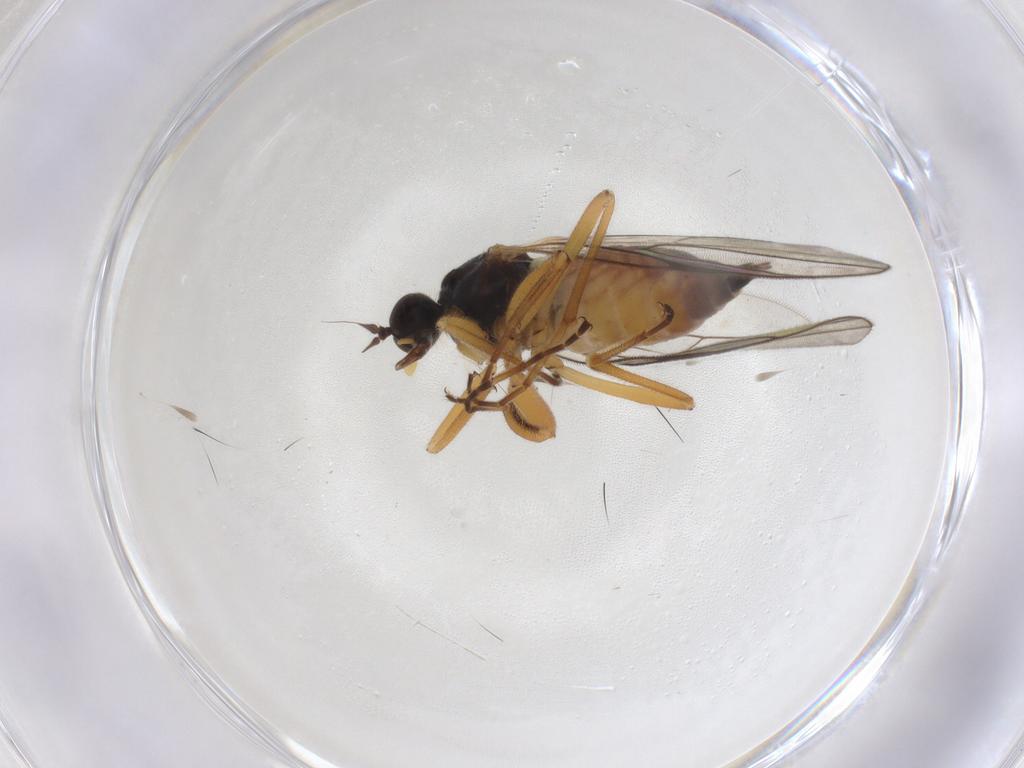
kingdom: Animalia
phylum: Arthropoda
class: Insecta
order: Diptera
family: Hybotidae
